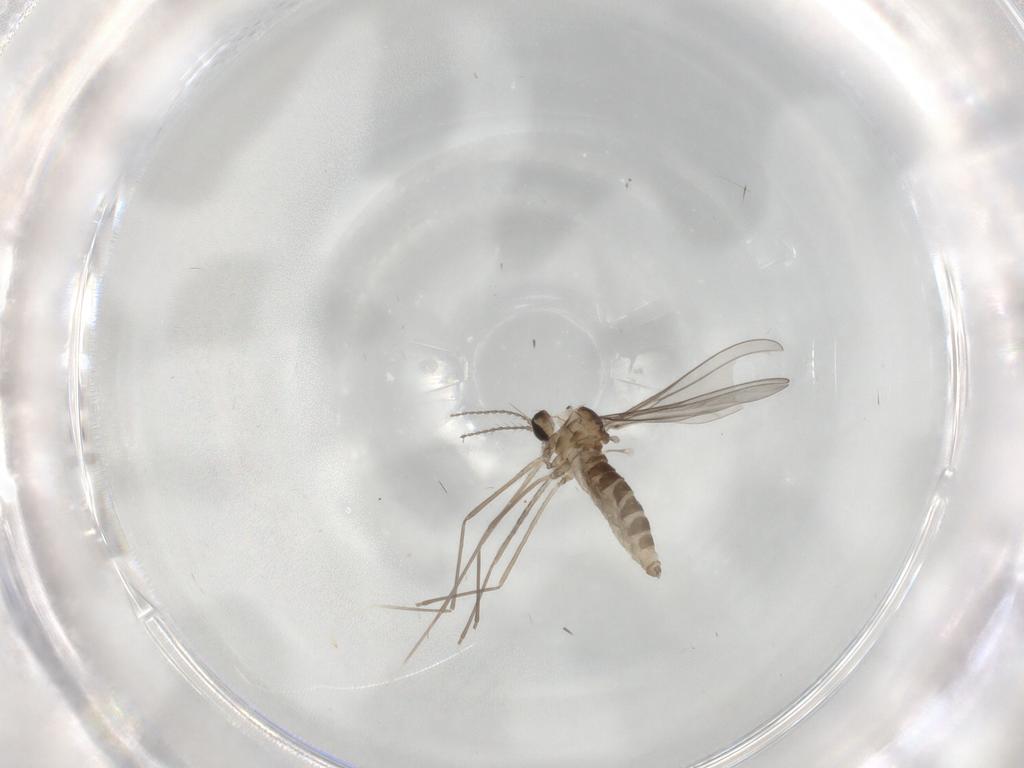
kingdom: Animalia
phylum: Arthropoda
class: Insecta
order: Diptera
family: Cecidomyiidae
